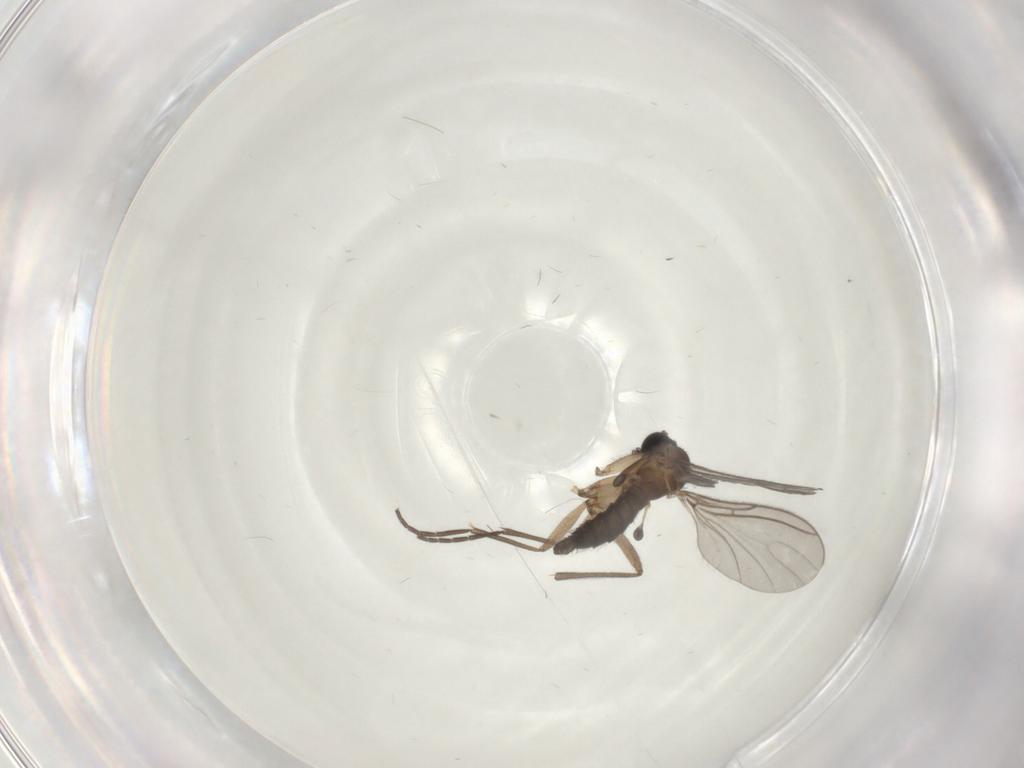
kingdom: Animalia
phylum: Arthropoda
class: Insecta
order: Diptera
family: Sciaridae
